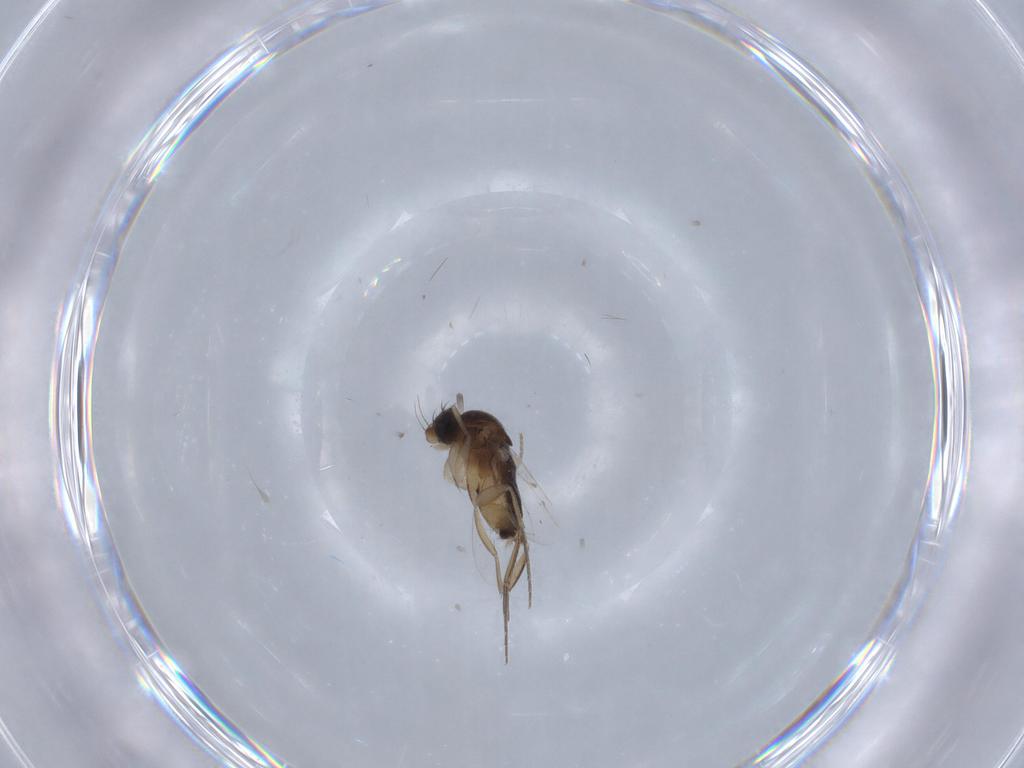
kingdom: Animalia
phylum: Arthropoda
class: Insecta
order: Diptera
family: Phoridae
